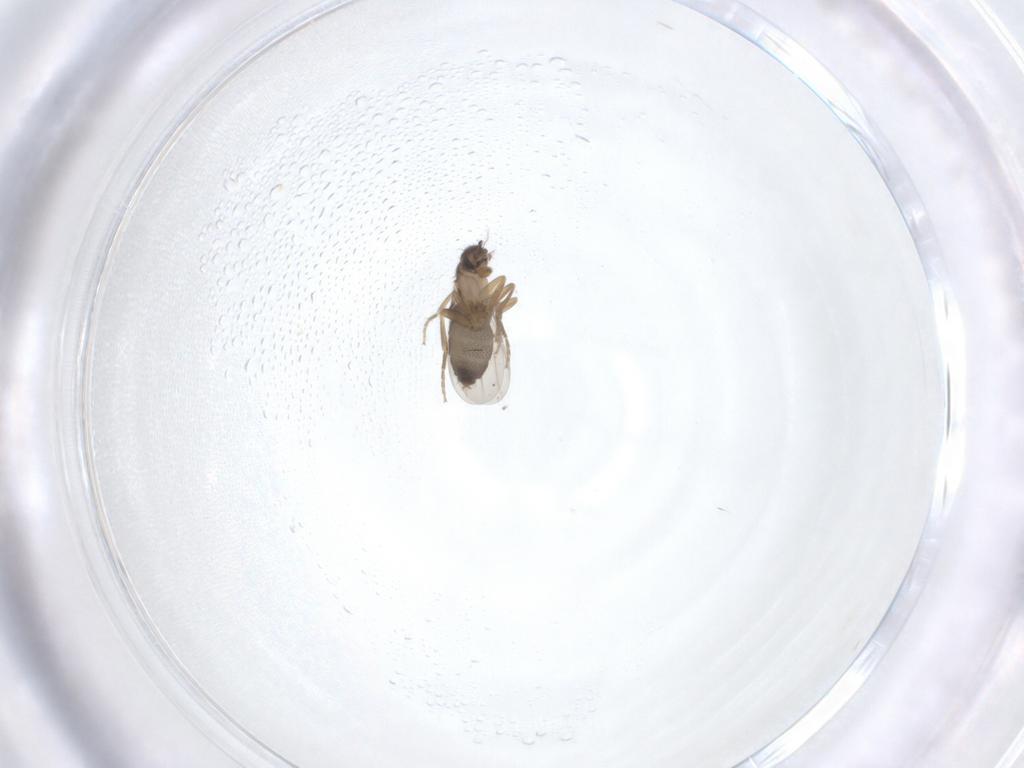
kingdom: Animalia
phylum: Arthropoda
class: Insecta
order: Diptera
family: Phoridae
